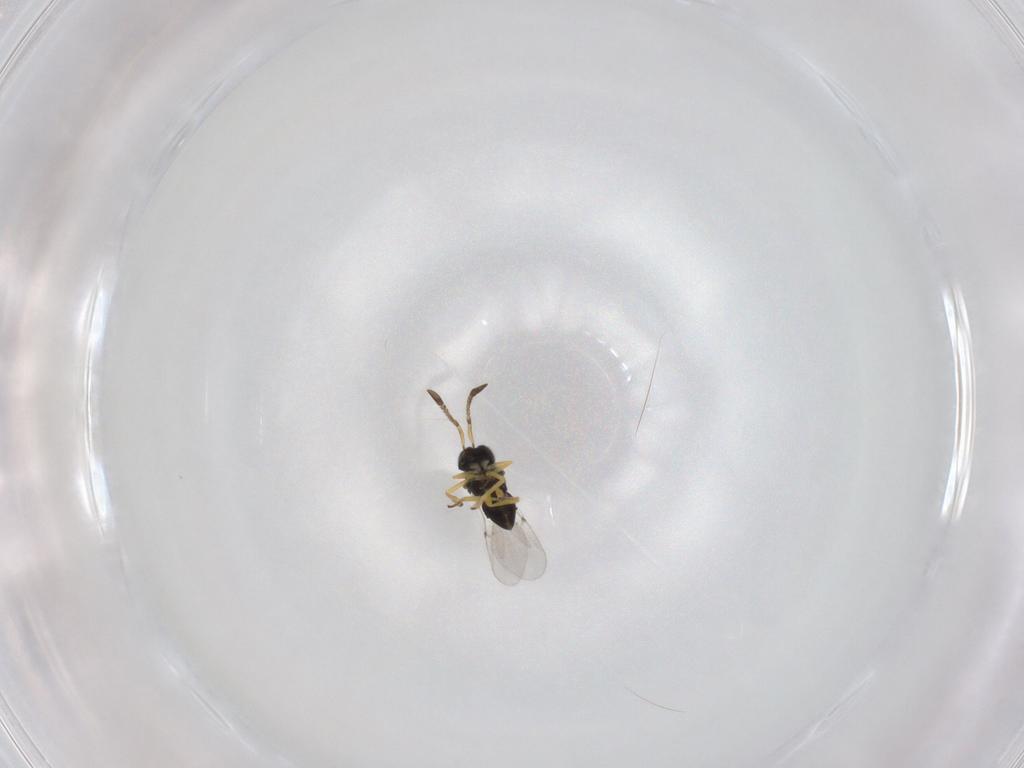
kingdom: Animalia
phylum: Arthropoda
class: Insecta
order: Hymenoptera
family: Encyrtidae
